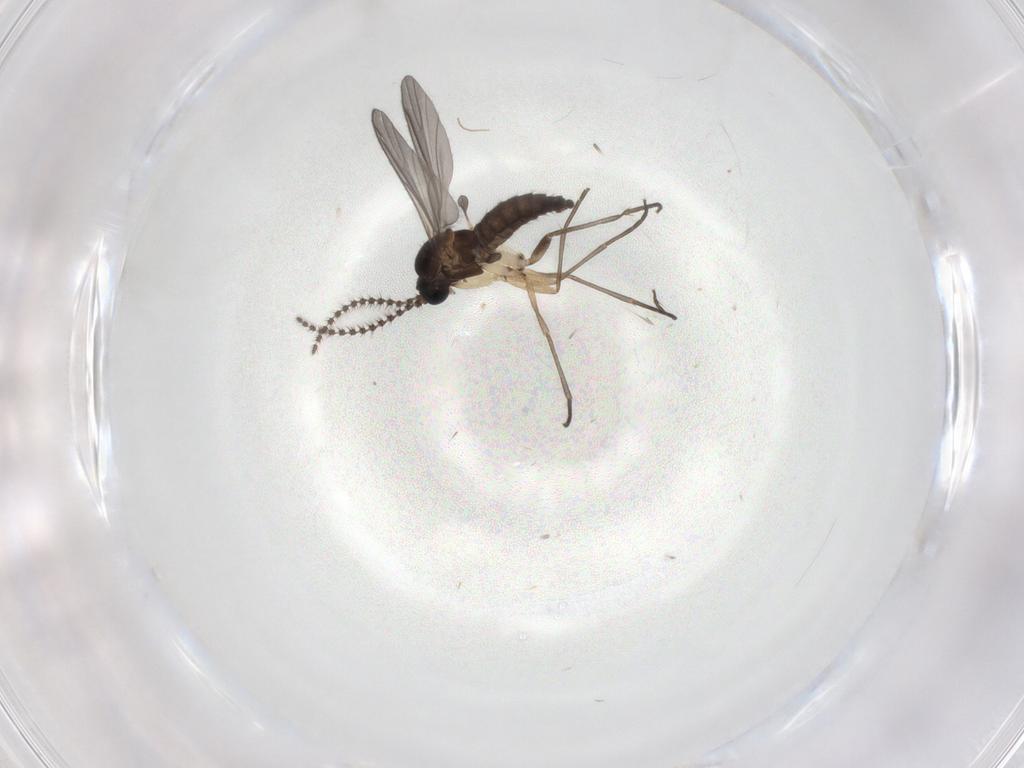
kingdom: Animalia
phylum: Arthropoda
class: Insecta
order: Diptera
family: Sciaridae
